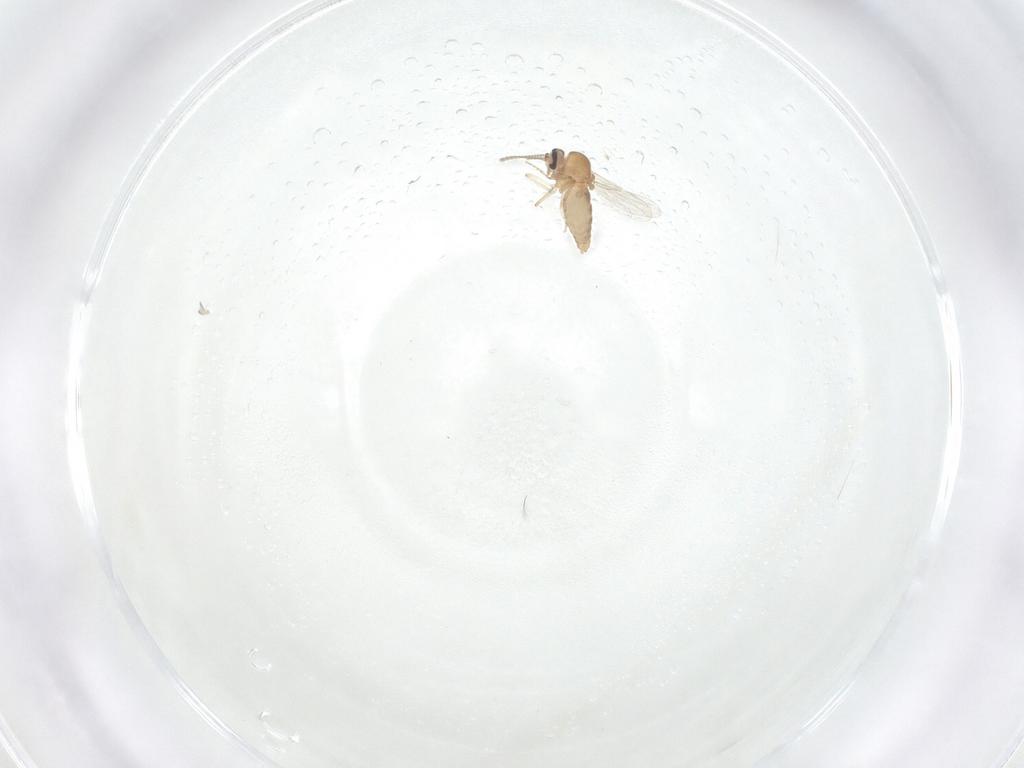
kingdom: Animalia
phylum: Arthropoda
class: Insecta
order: Diptera
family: Ceratopogonidae
